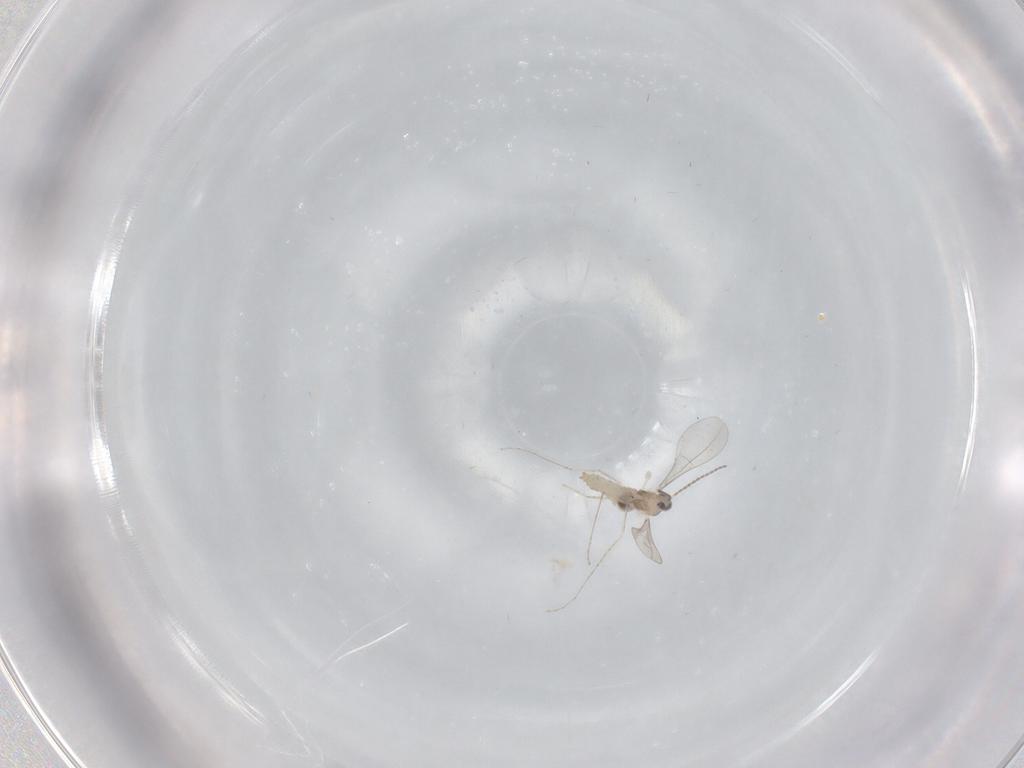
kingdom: Animalia
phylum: Arthropoda
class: Insecta
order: Diptera
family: Cecidomyiidae
